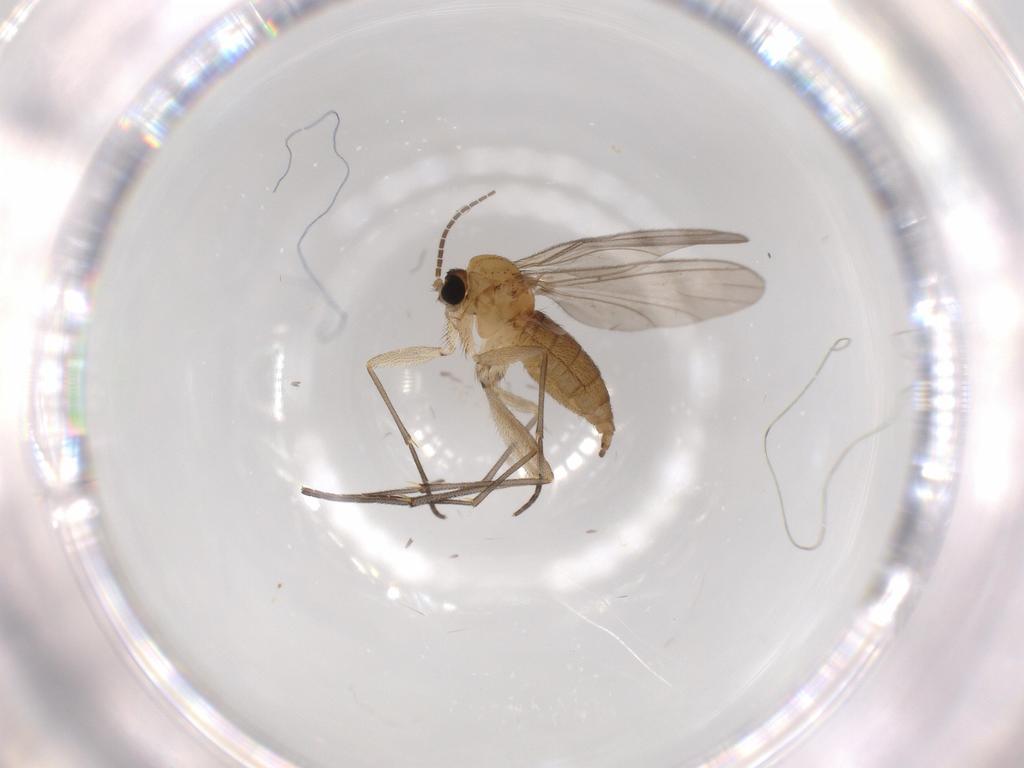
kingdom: Animalia
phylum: Arthropoda
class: Insecta
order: Diptera
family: Sciaridae
